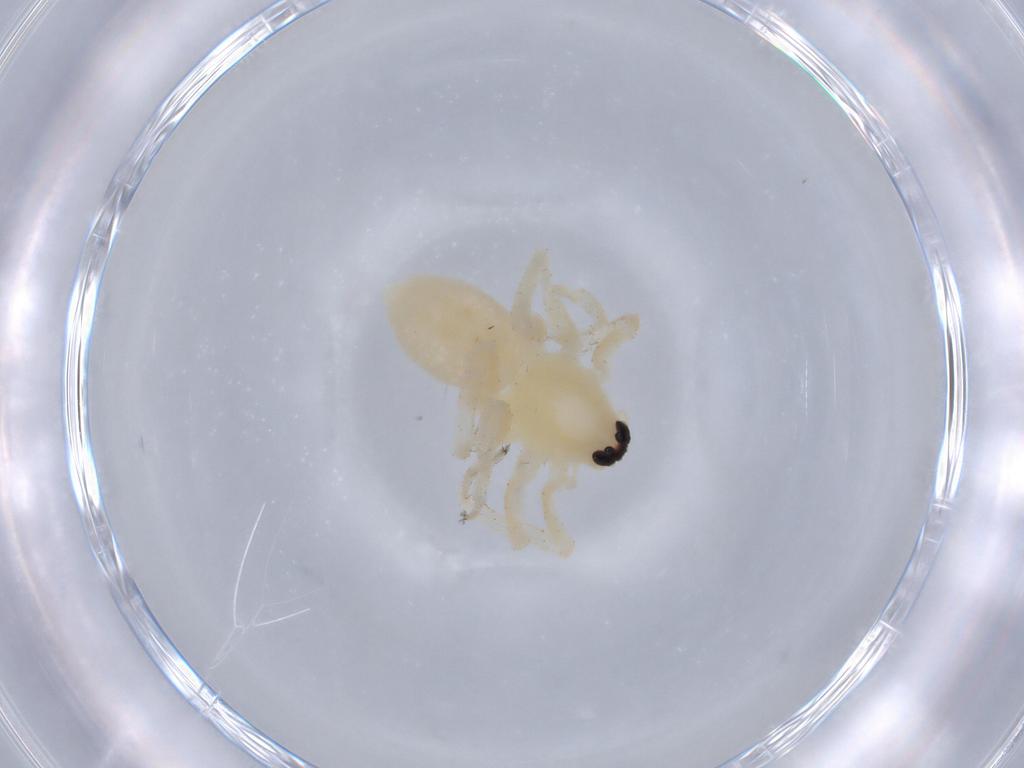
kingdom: Animalia
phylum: Arthropoda
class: Arachnida
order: Araneae
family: Anyphaenidae
